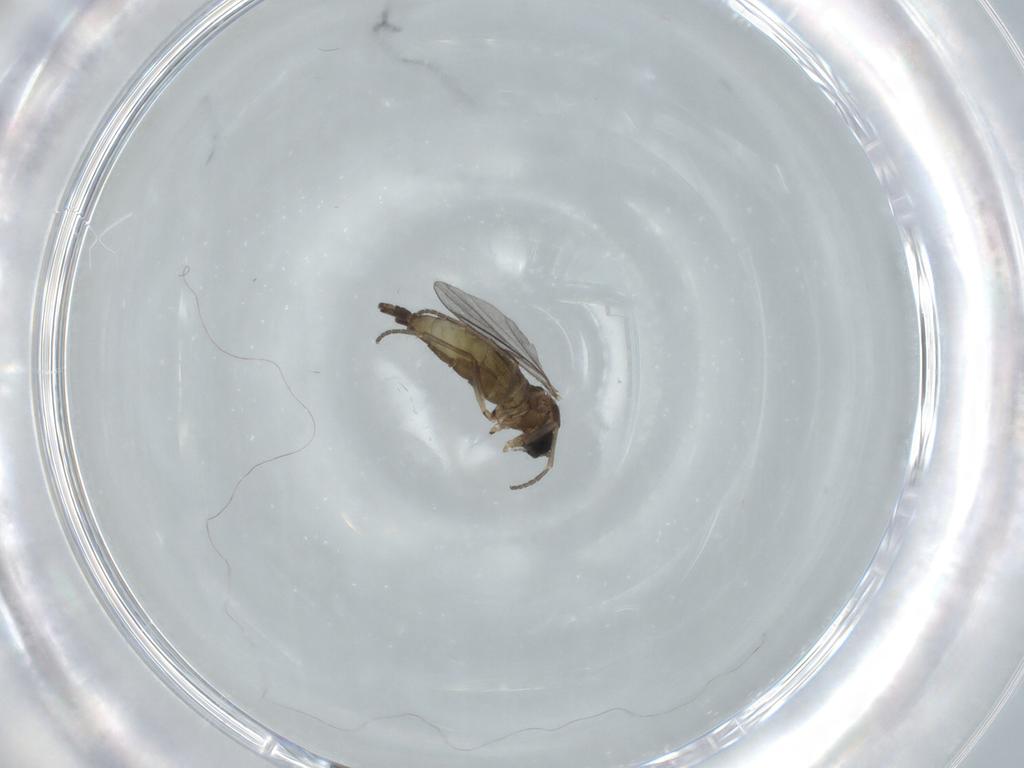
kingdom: Animalia
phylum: Arthropoda
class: Insecta
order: Diptera
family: Sciaridae
